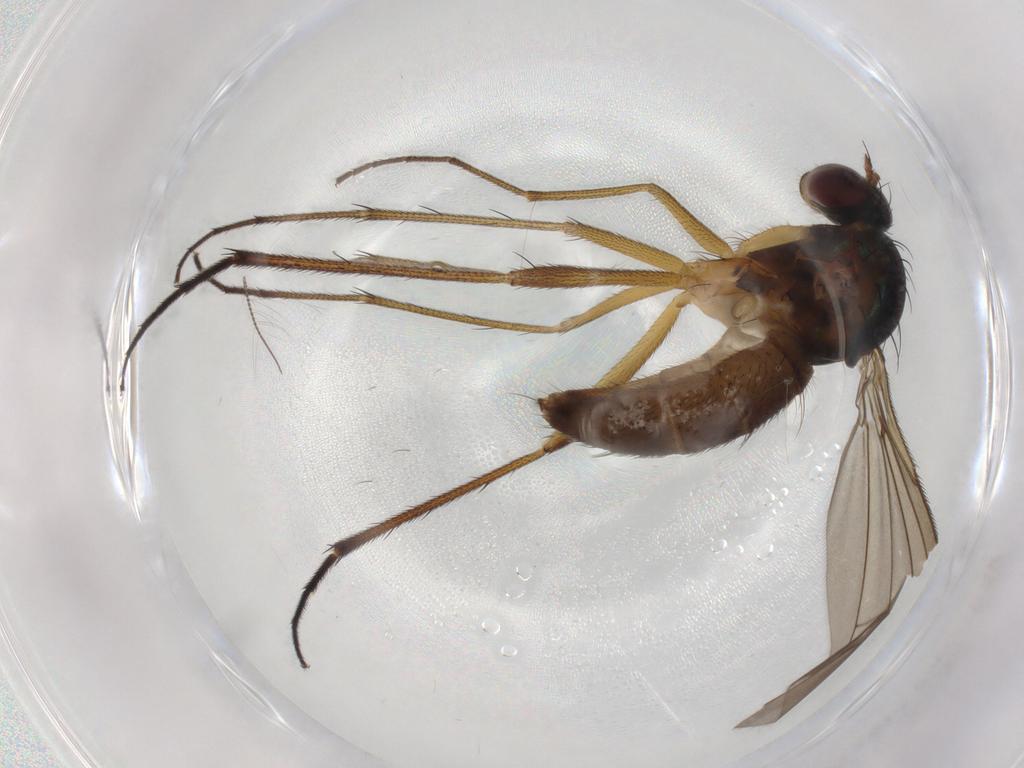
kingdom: Animalia
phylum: Arthropoda
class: Insecta
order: Diptera
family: Dolichopodidae
